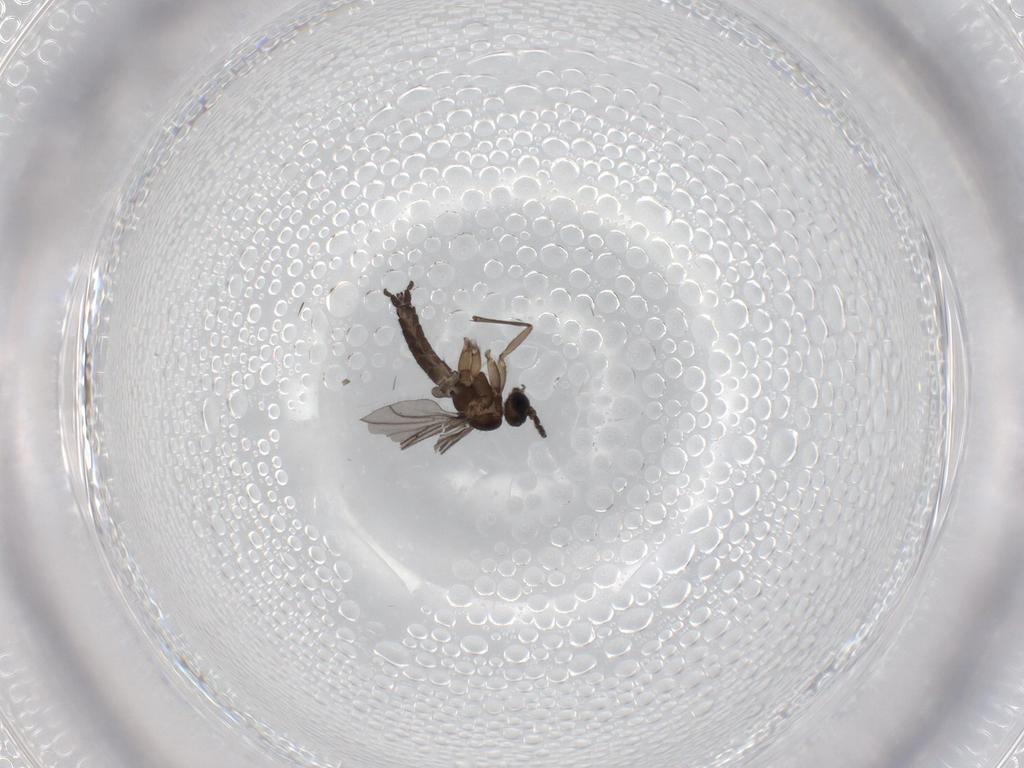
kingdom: Animalia
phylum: Arthropoda
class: Insecta
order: Diptera
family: Sciaridae
